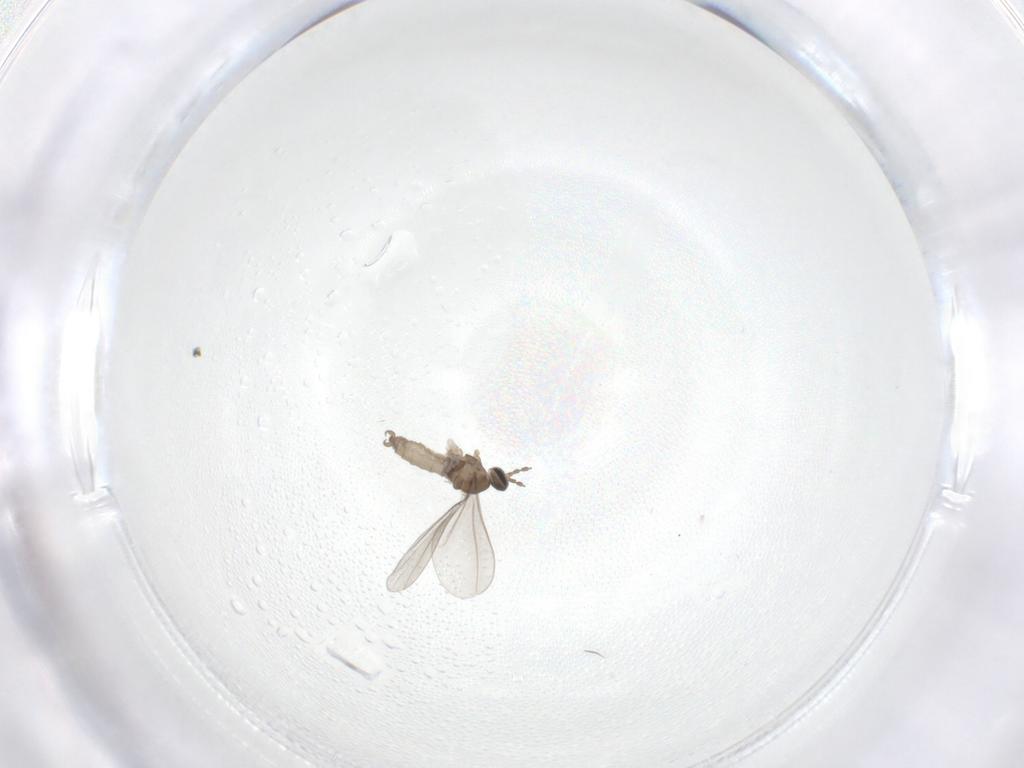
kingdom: Animalia
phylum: Arthropoda
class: Insecta
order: Diptera
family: Cecidomyiidae
